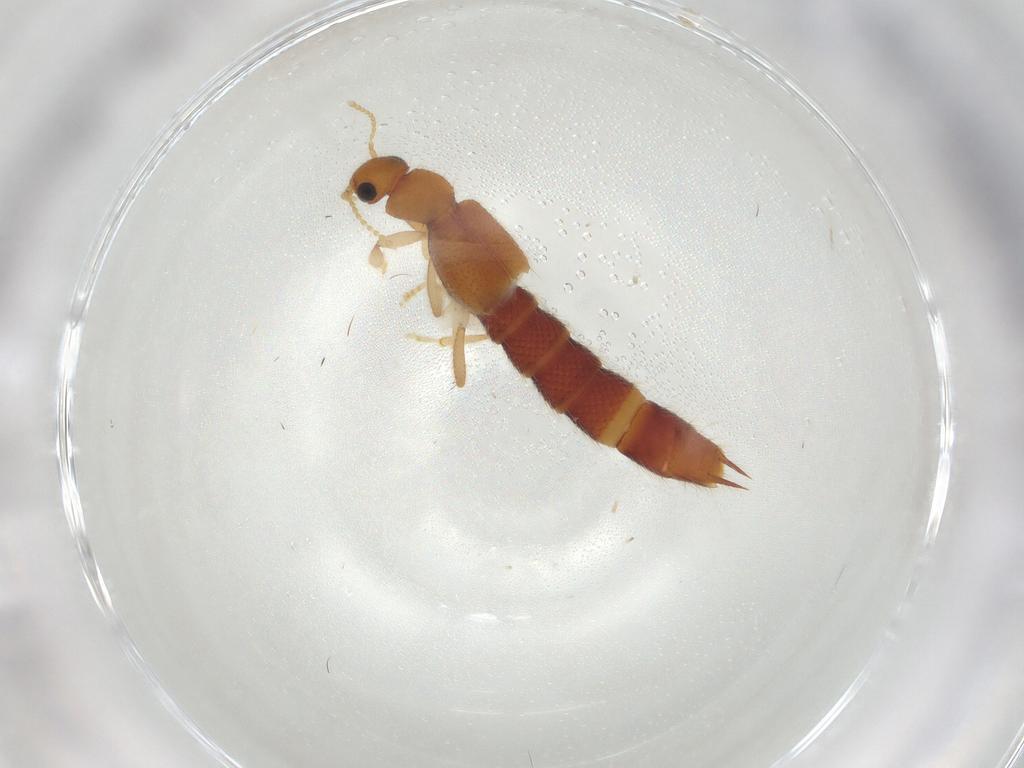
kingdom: Animalia
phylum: Arthropoda
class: Insecta
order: Coleoptera
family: Staphylinidae
